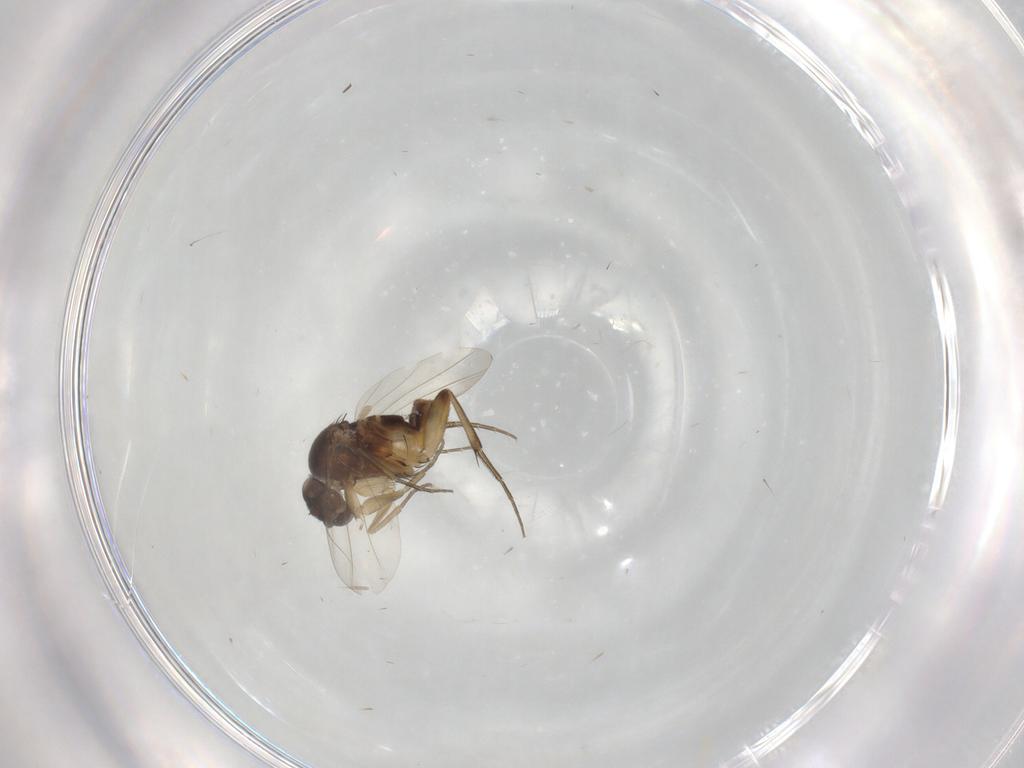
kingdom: Animalia
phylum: Arthropoda
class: Insecta
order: Diptera
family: Phoridae
